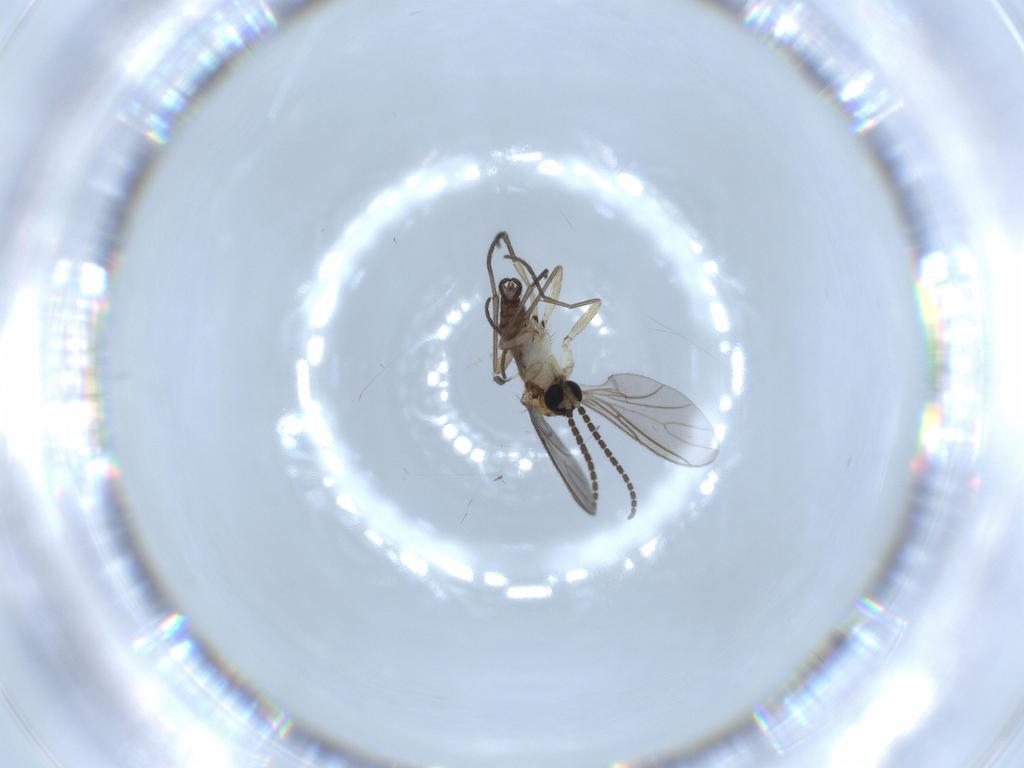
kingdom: Animalia
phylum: Arthropoda
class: Insecta
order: Diptera
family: Sciaridae
